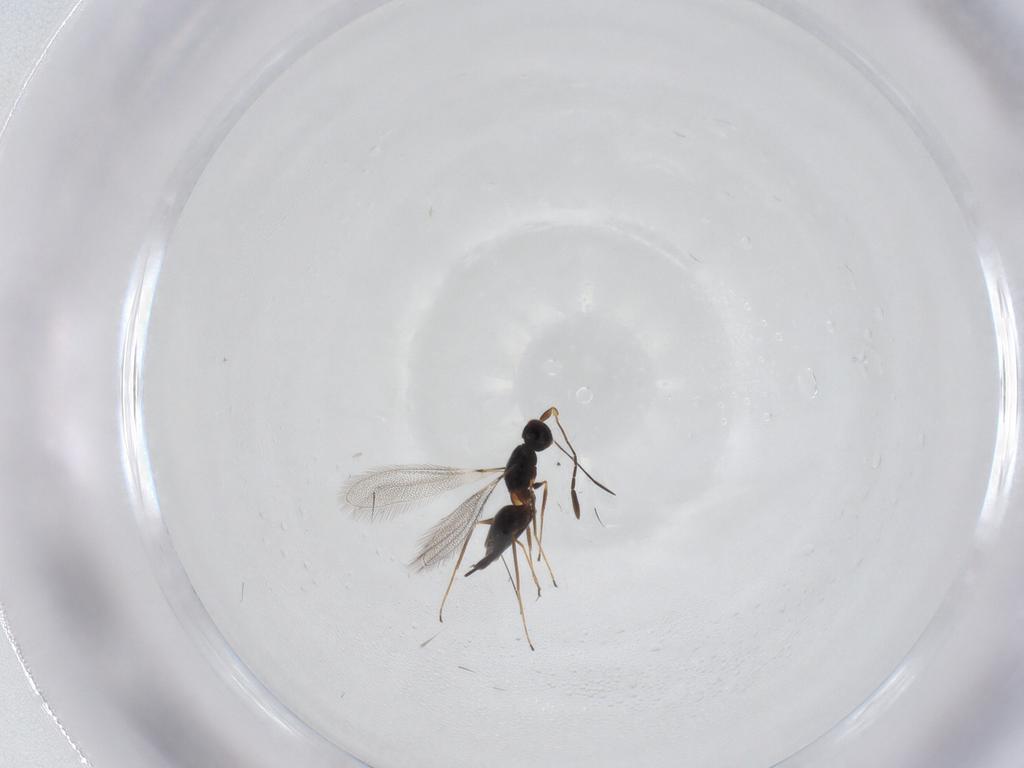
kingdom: Animalia
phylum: Arthropoda
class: Insecta
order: Hymenoptera
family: Mymaridae
